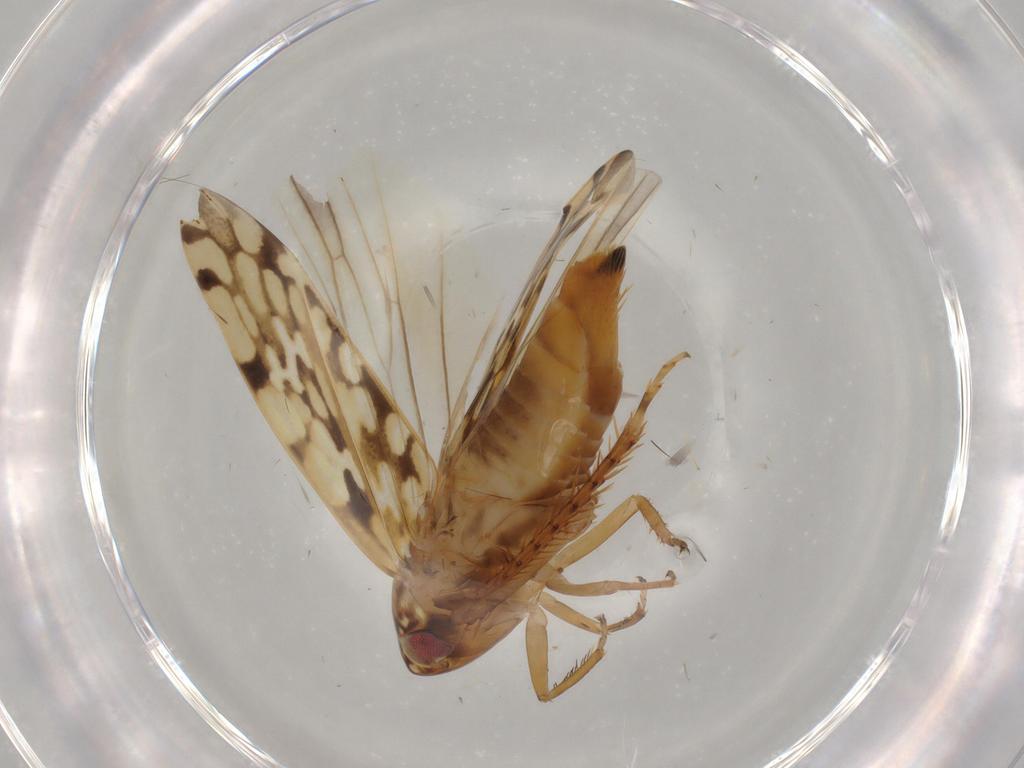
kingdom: Animalia
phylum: Arthropoda
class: Insecta
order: Hemiptera
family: Cicadellidae
